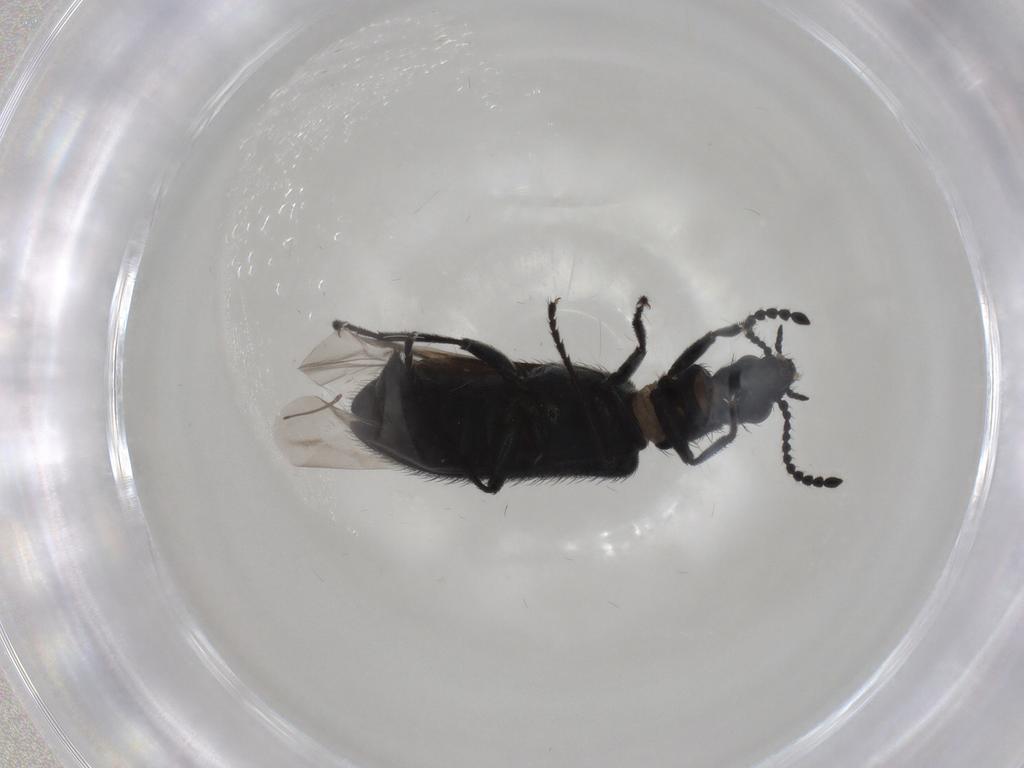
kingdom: Animalia
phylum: Arthropoda
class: Insecta
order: Coleoptera
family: Melyridae
